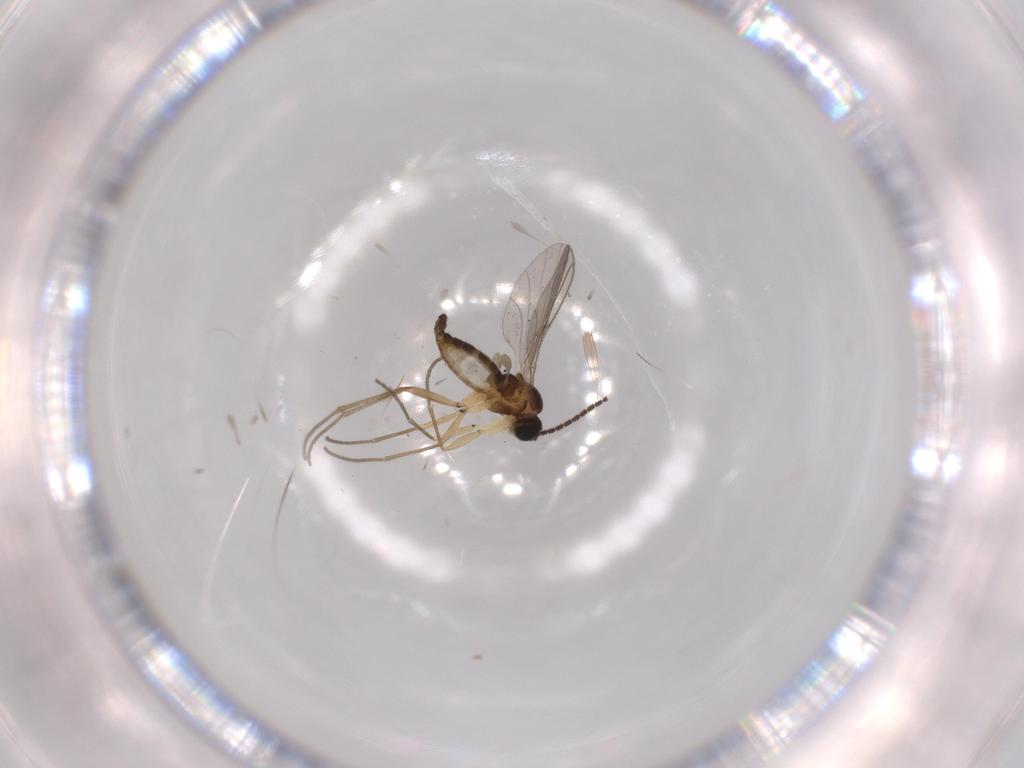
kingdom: Animalia
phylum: Arthropoda
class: Insecta
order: Diptera
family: Sciaridae
